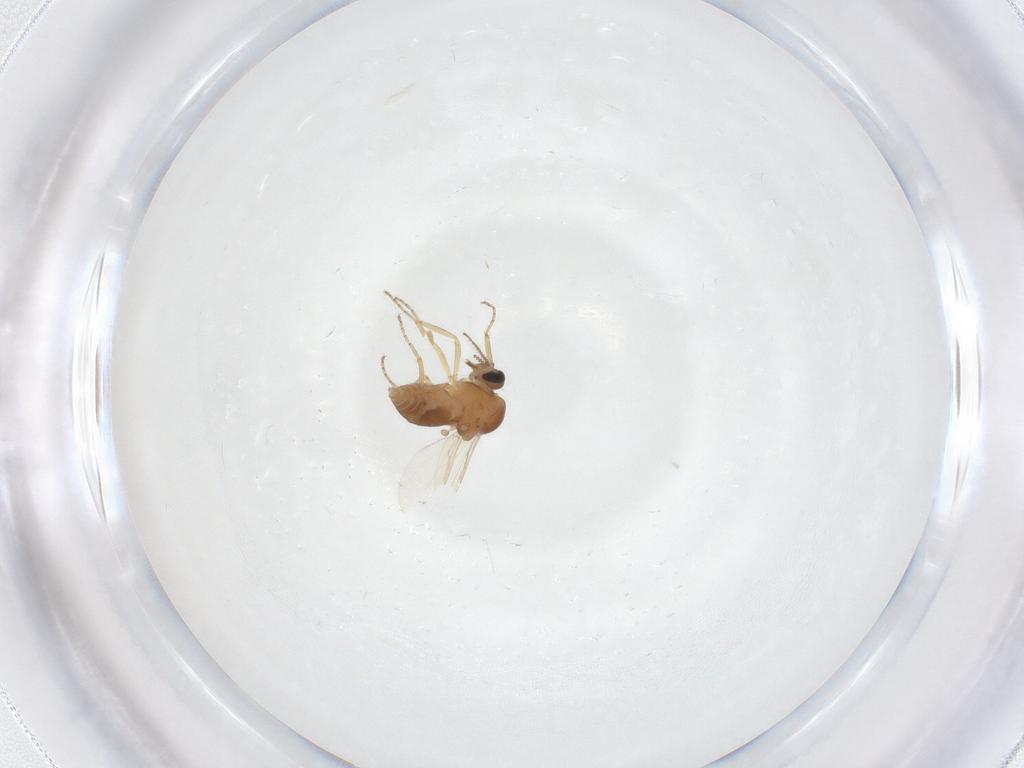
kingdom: Animalia
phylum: Arthropoda
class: Insecta
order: Diptera
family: Ceratopogonidae
